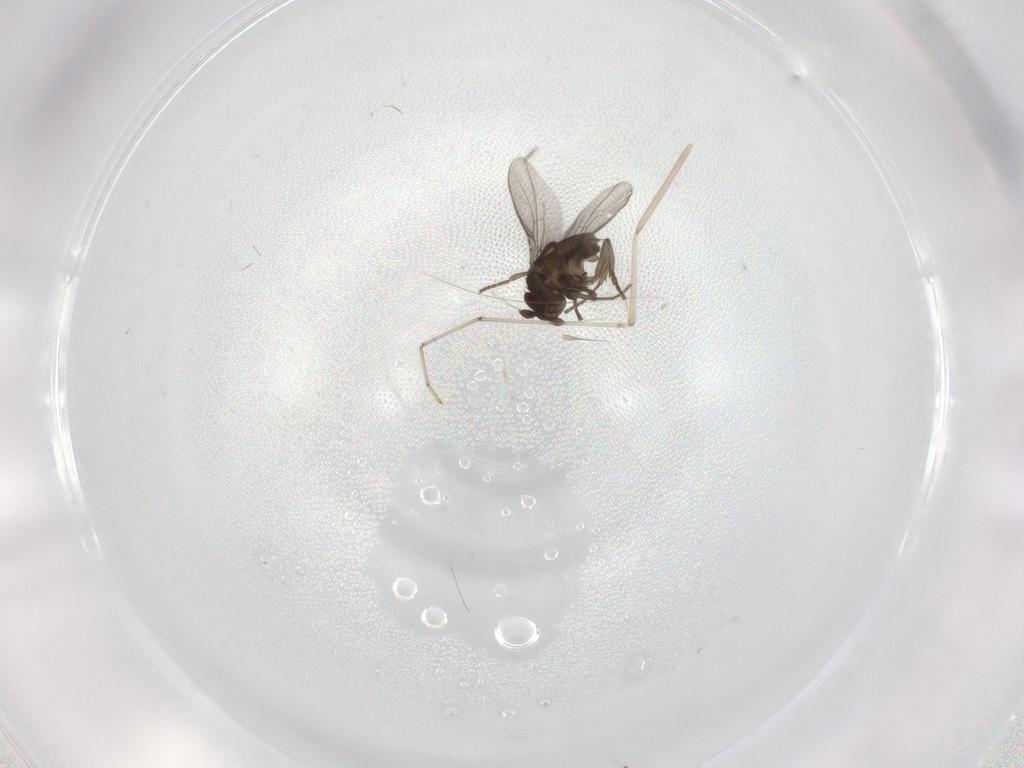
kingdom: Animalia
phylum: Arthropoda
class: Insecta
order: Diptera
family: Sphaeroceridae
